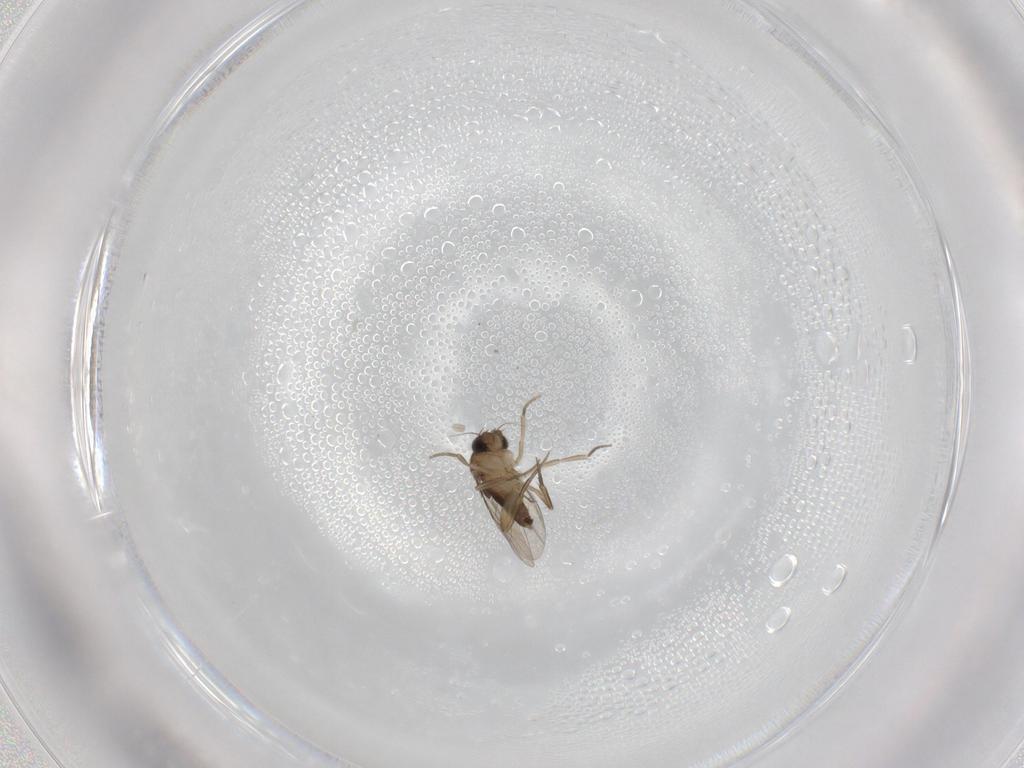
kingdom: Animalia
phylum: Arthropoda
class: Insecta
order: Diptera
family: Phoridae
